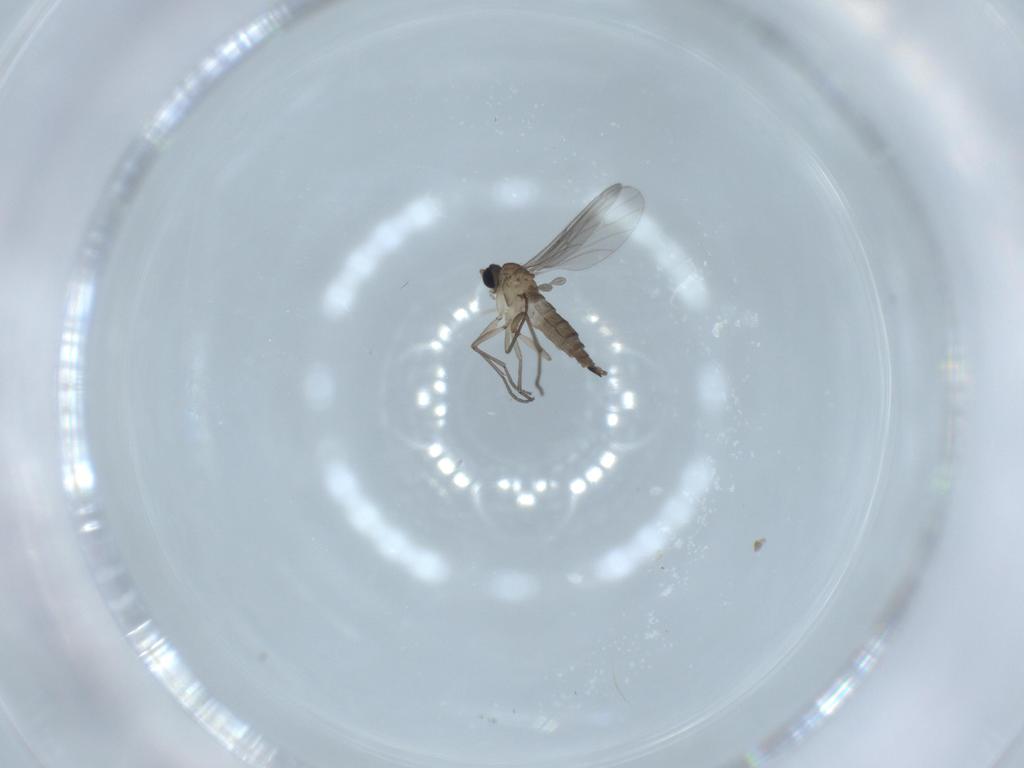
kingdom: Animalia
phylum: Arthropoda
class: Insecta
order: Diptera
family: Sciaridae
